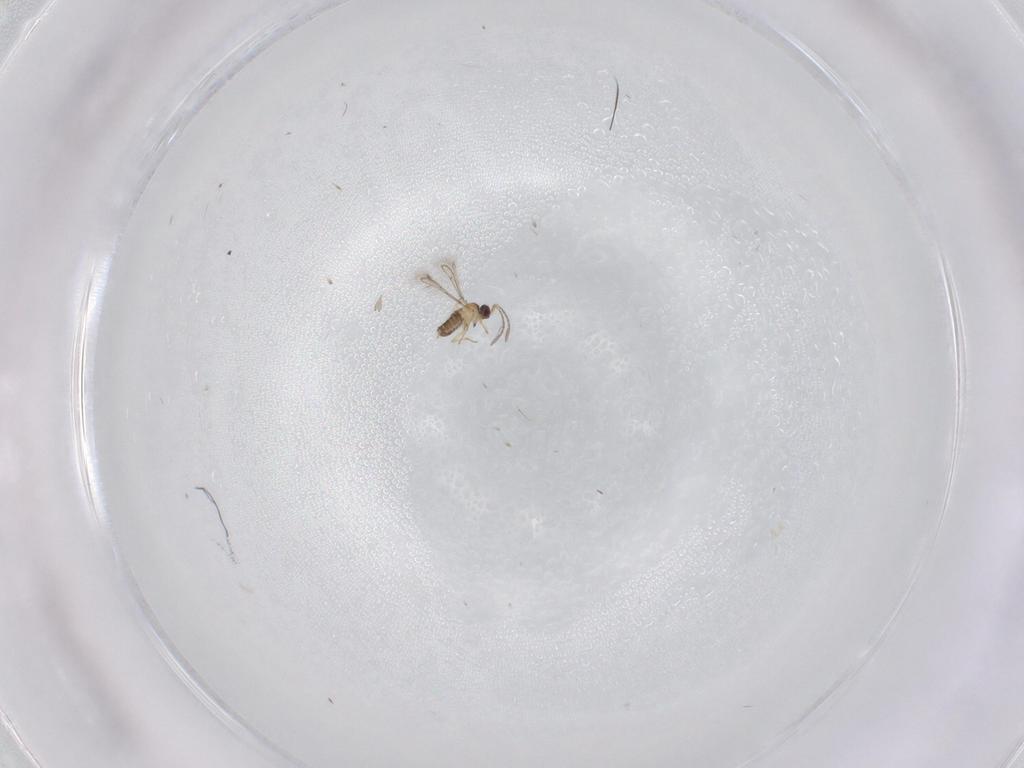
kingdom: Animalia
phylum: Arthropoda
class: Insecta
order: Hymenoptera
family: Mymaridae
